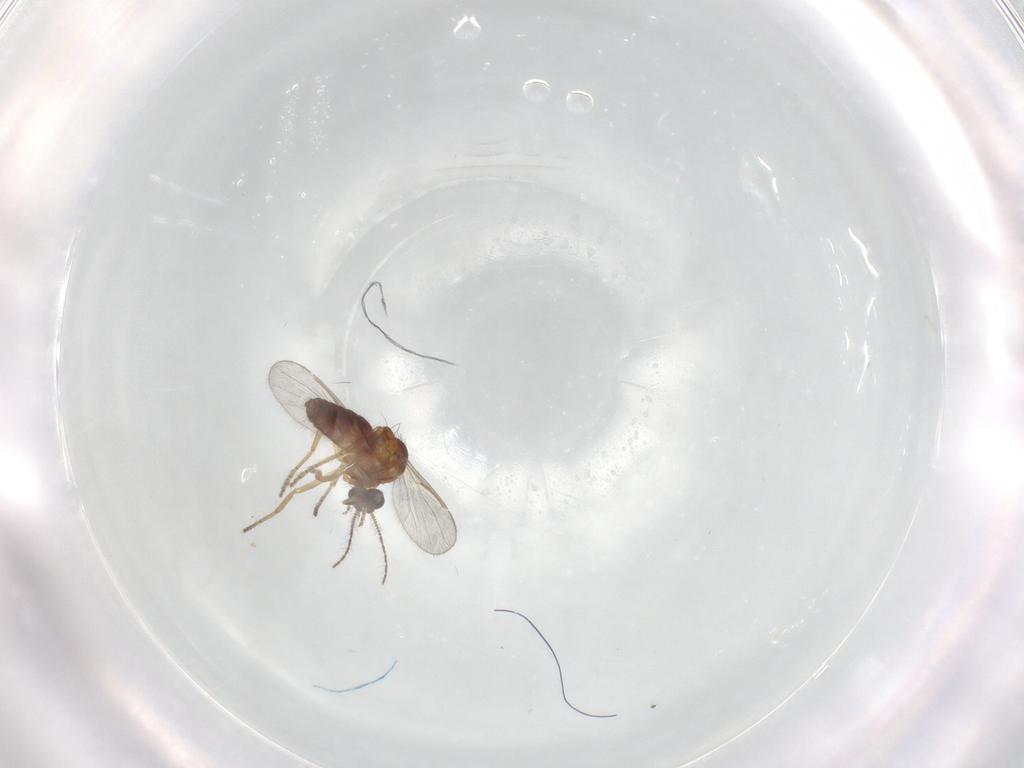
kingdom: Animalia
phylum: Arthropoda
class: Insecta
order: Diptera
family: Ceratopogonidae
